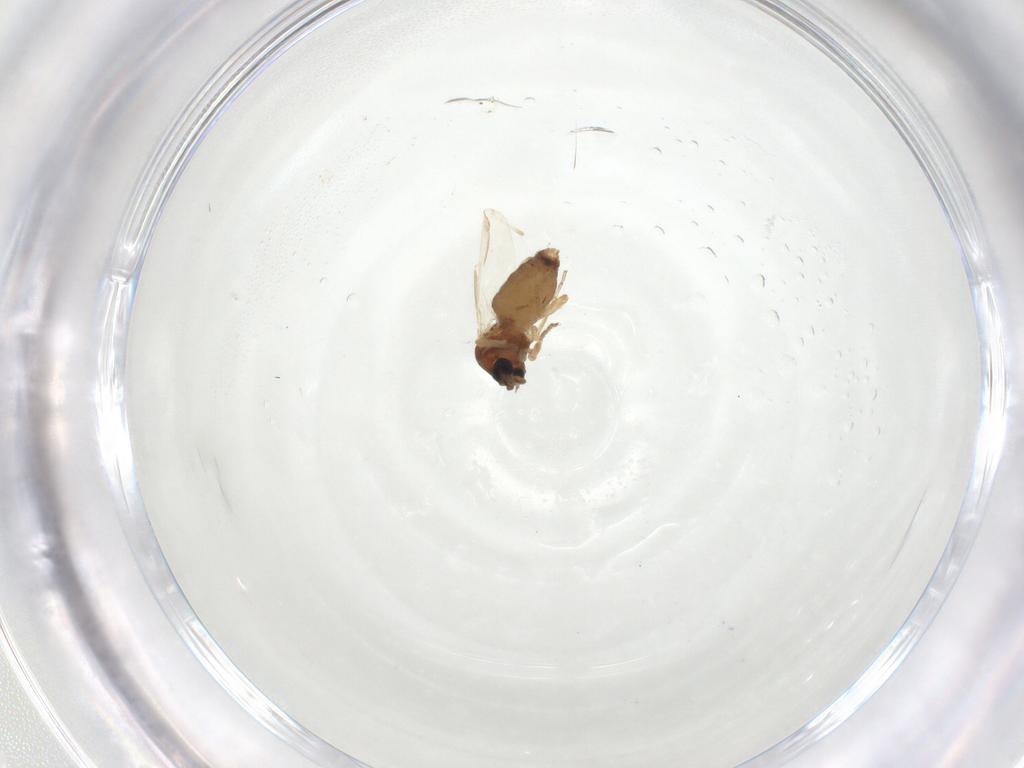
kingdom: Animalia
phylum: Arthropoda
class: Insecta
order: Diptera
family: Ceratopogonidae
